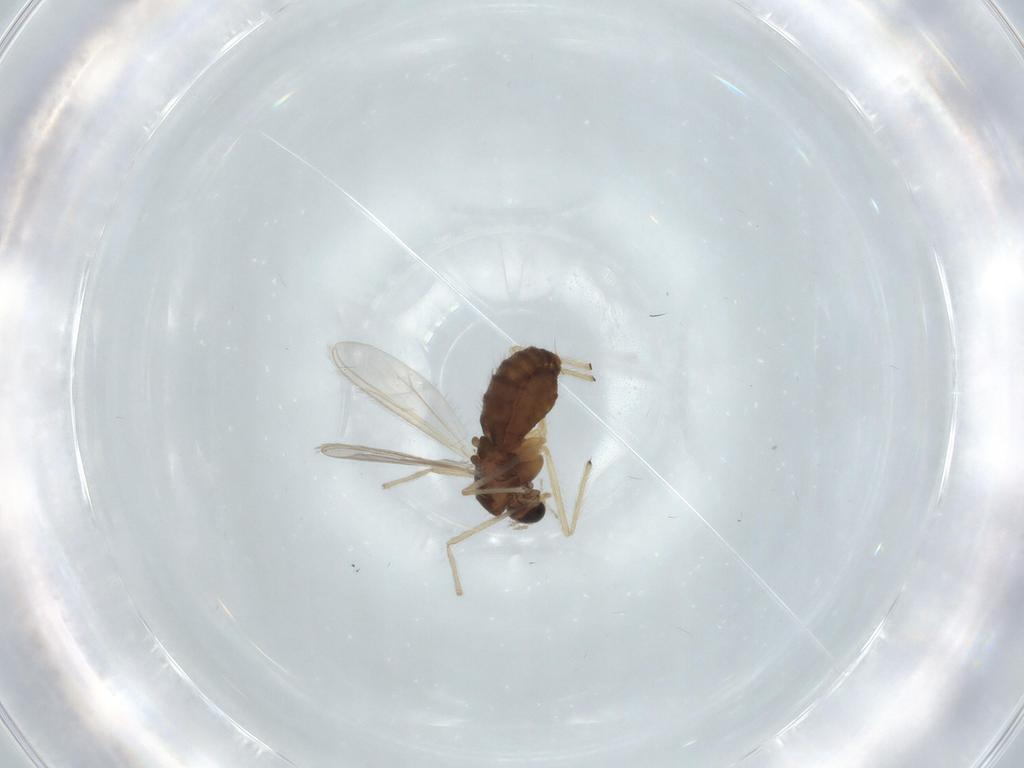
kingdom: Animalia
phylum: Arthropoda
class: Insecta
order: Diptera
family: Chironomidae
